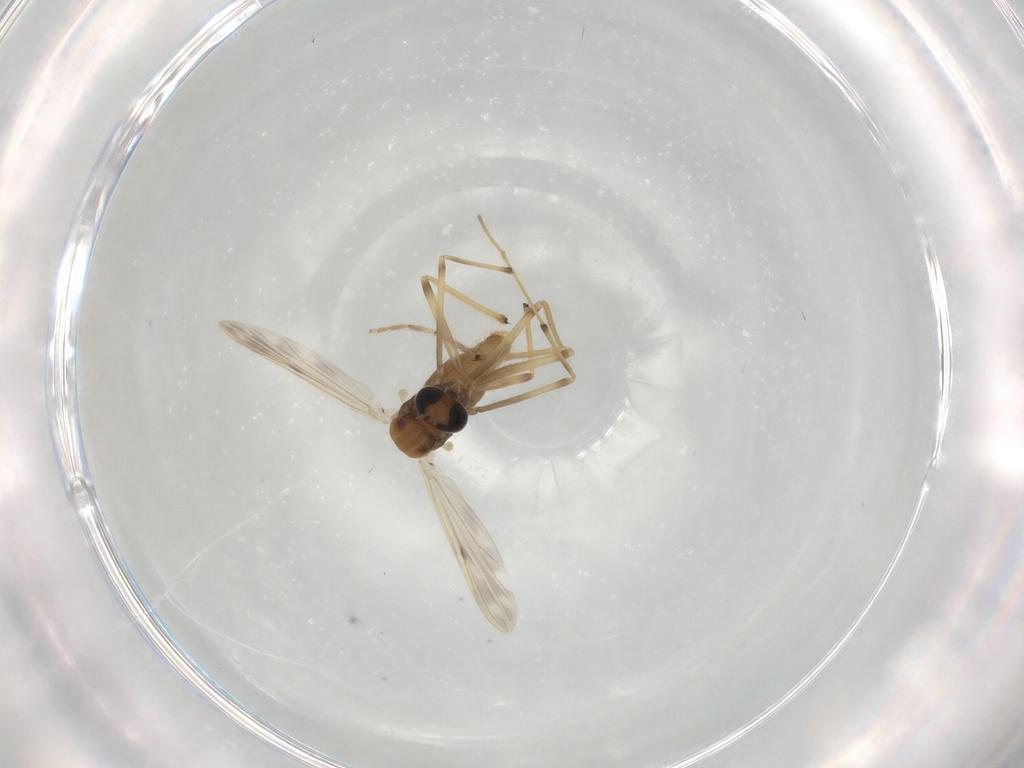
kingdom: Animalia
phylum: Arthropoda
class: Insecta
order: Diptera
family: Chironomidae
